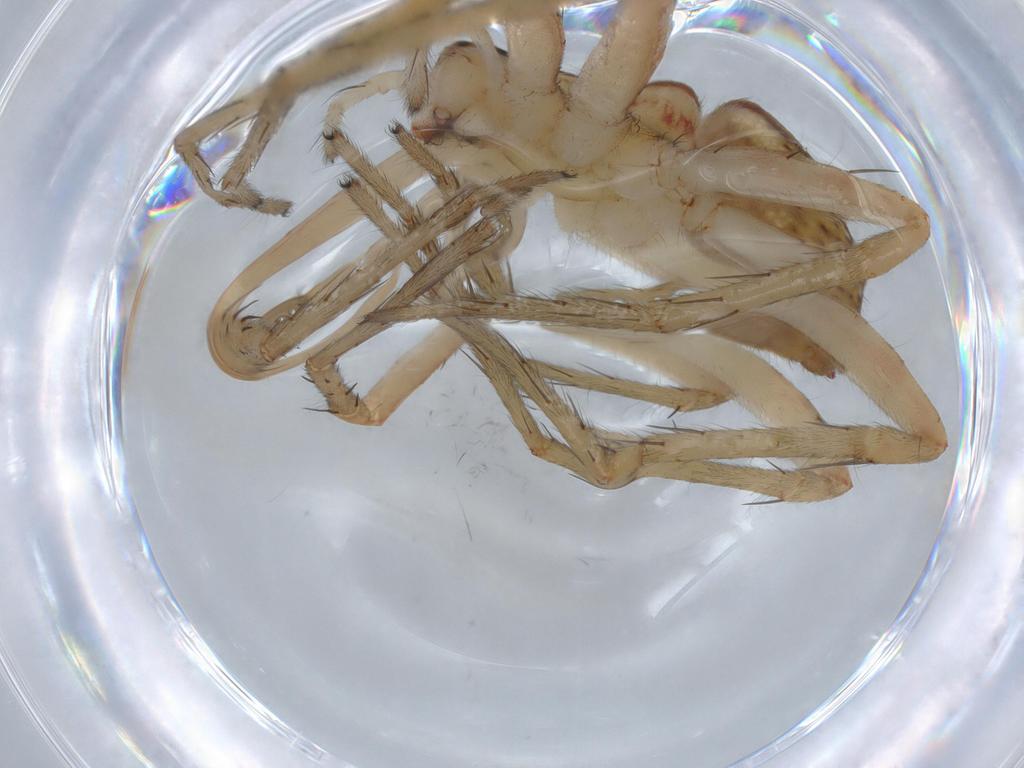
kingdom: Animalia
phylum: Arthropoda
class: Arachnida
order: Araneae
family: Pisauridae
